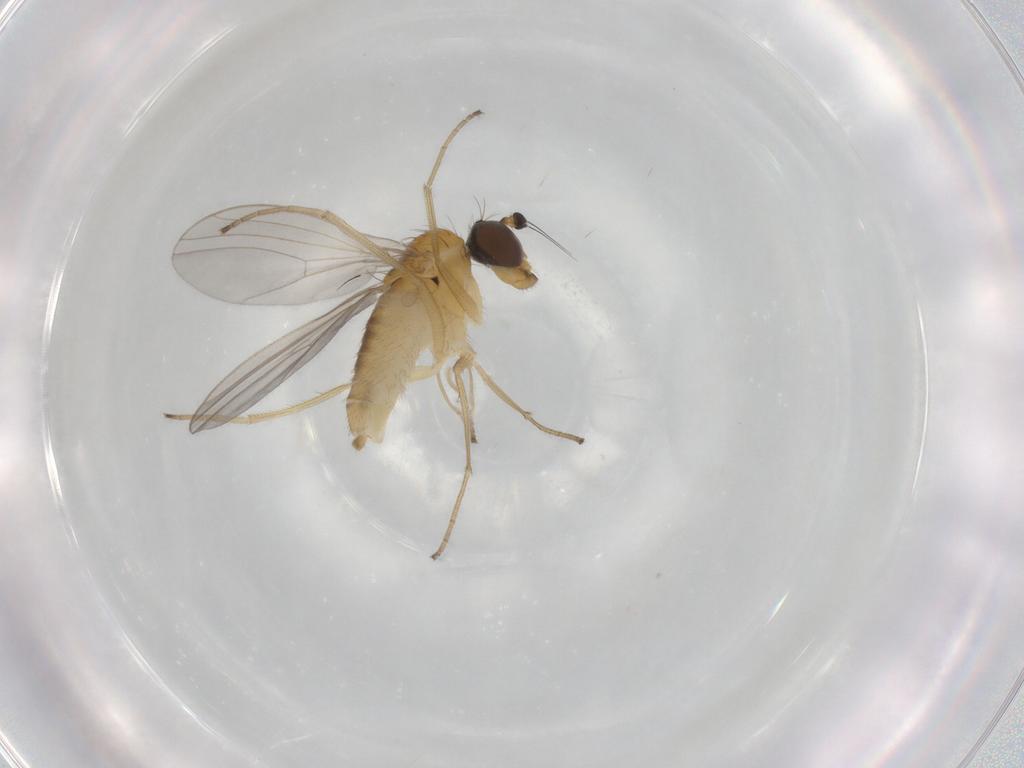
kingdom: Animalia
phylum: Arthropoda
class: Insecta
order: Diptera
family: Dolichopodidae
